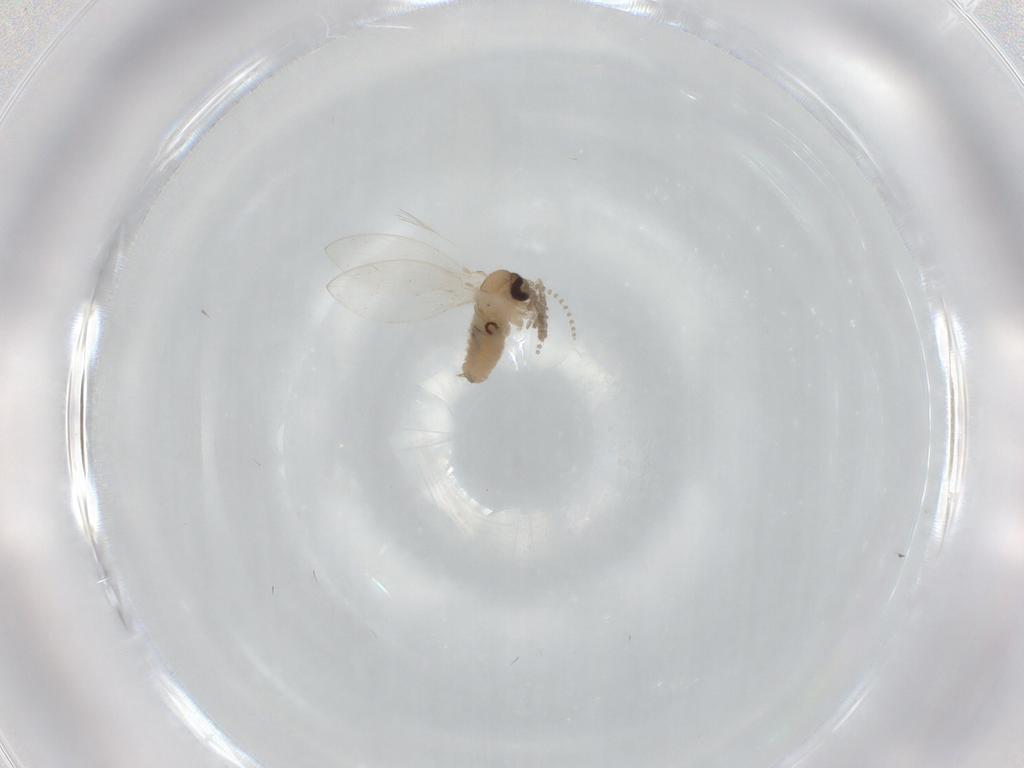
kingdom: Animalia
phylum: Arthropoda
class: Insecta
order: Diptera
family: Psychodidae
